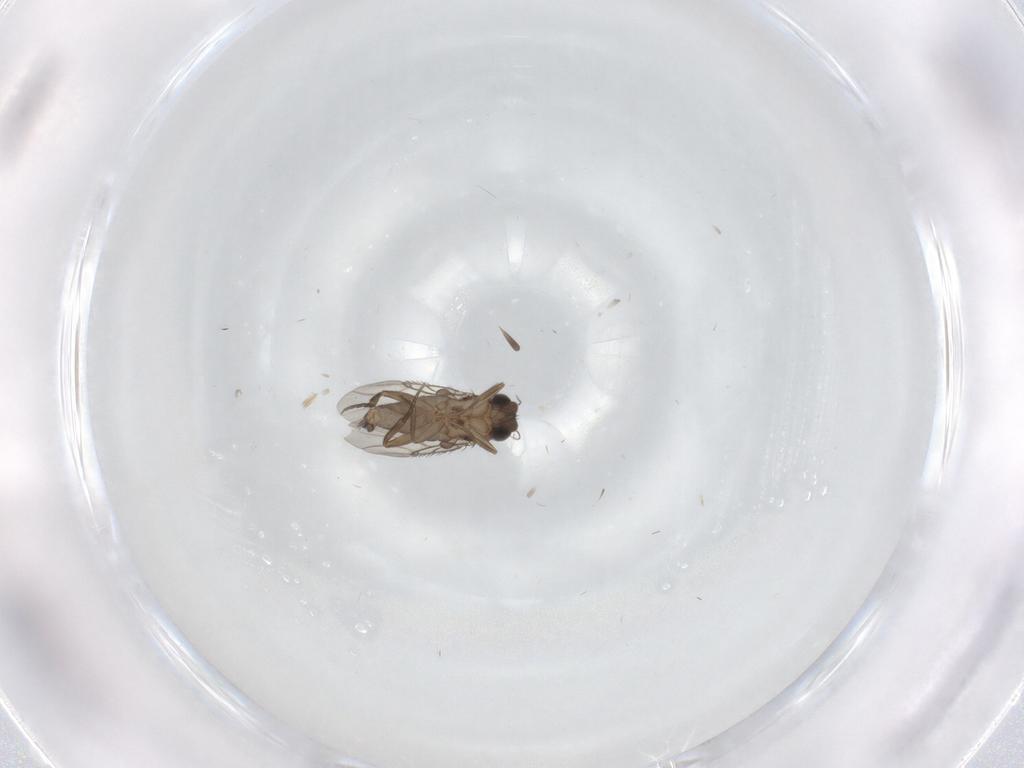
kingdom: Animalia
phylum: Arthropoda
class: Insecta
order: Diptera
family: Phoridae
